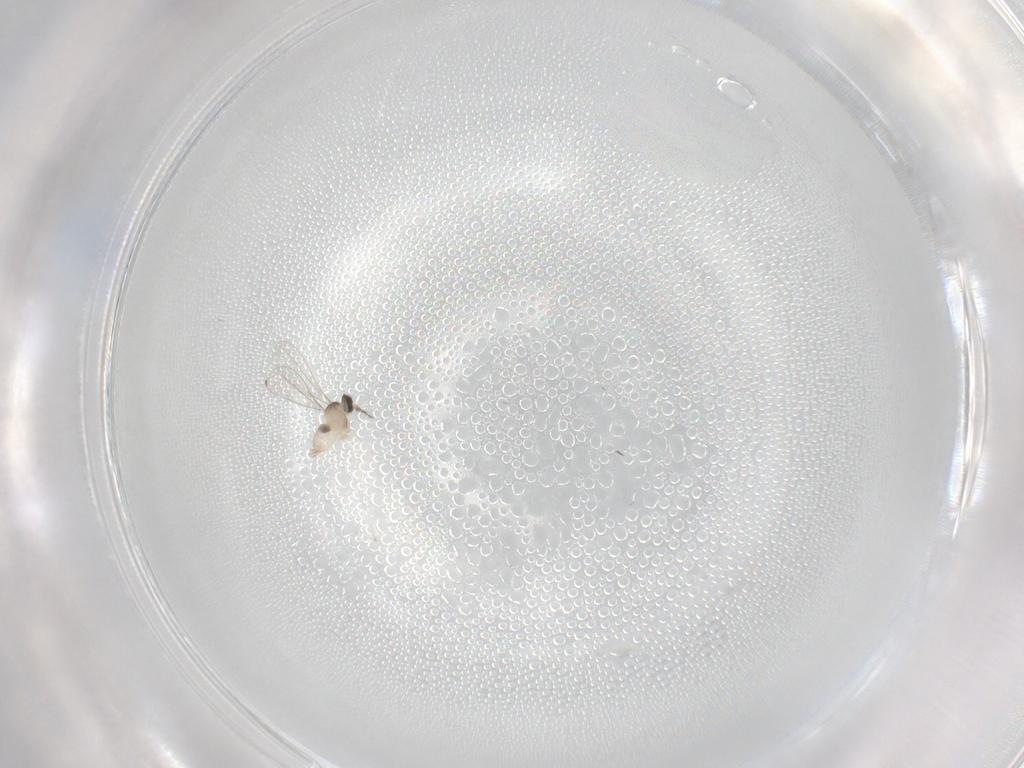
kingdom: Animalia
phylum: Arthropoda
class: Insecta
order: Diptera
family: Cecidomyiidae
